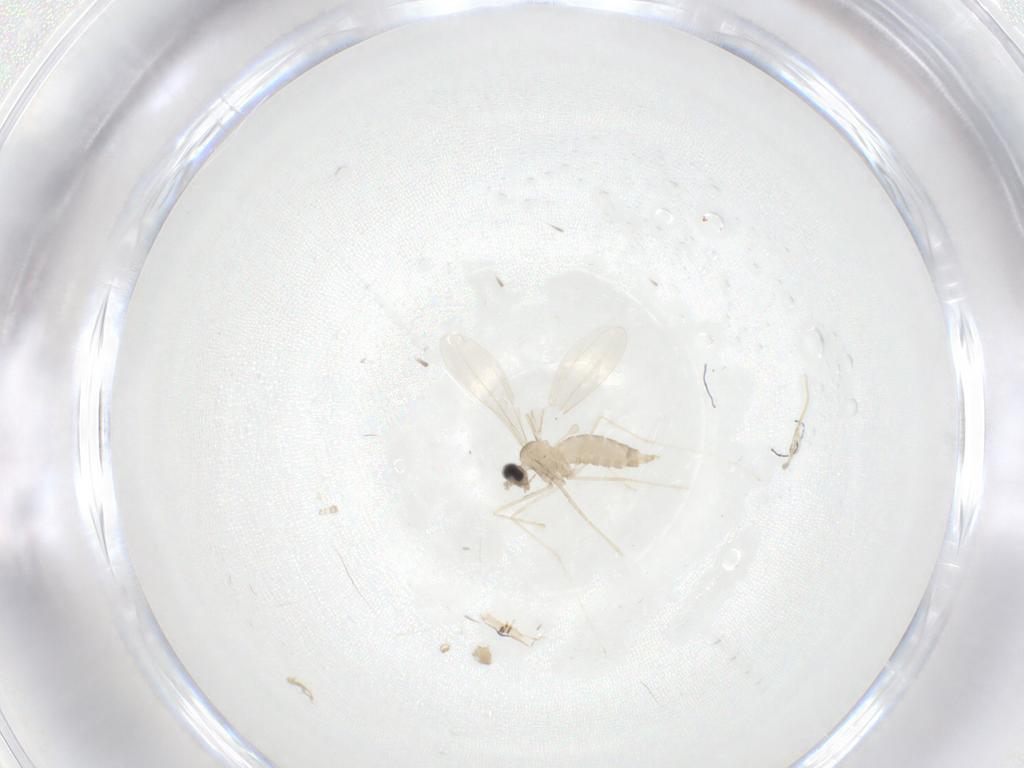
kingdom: Animalia
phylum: Arthropoda
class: Insecta
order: Diptera
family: Cecidomyiidae
